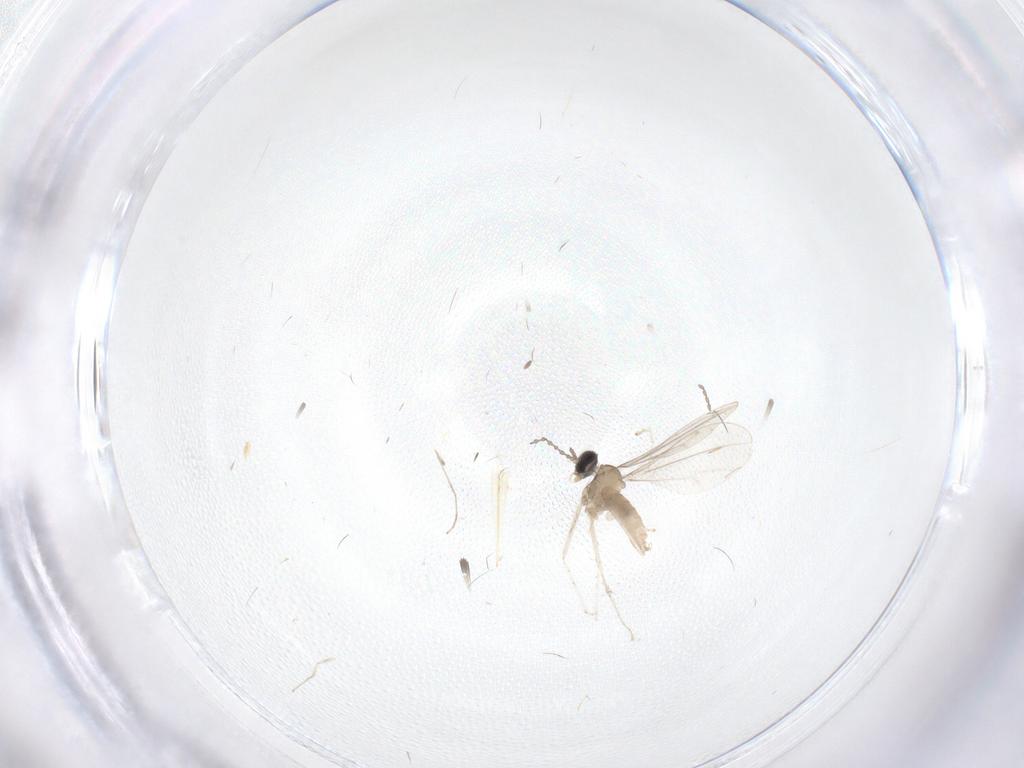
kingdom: Animalia
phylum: Arthropoda
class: Insecta
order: Diptera
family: Cecidomyiidae
